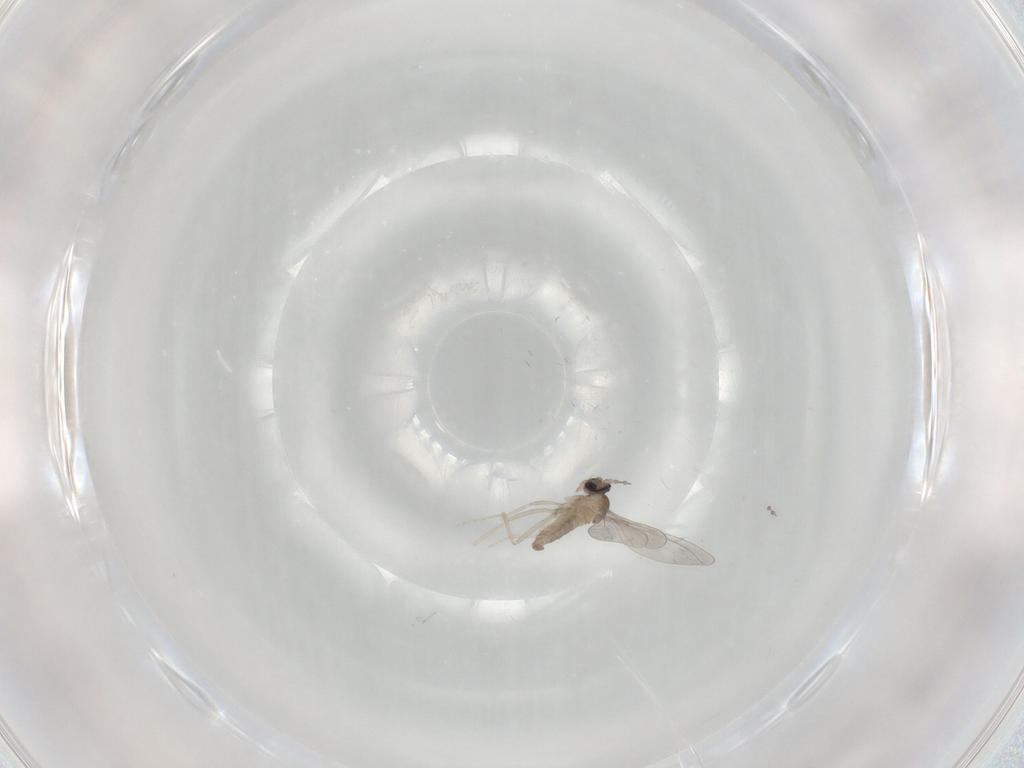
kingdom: Animalia
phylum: Arthropoda
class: Insecta
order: Diptera
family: Cecidomyiidae
